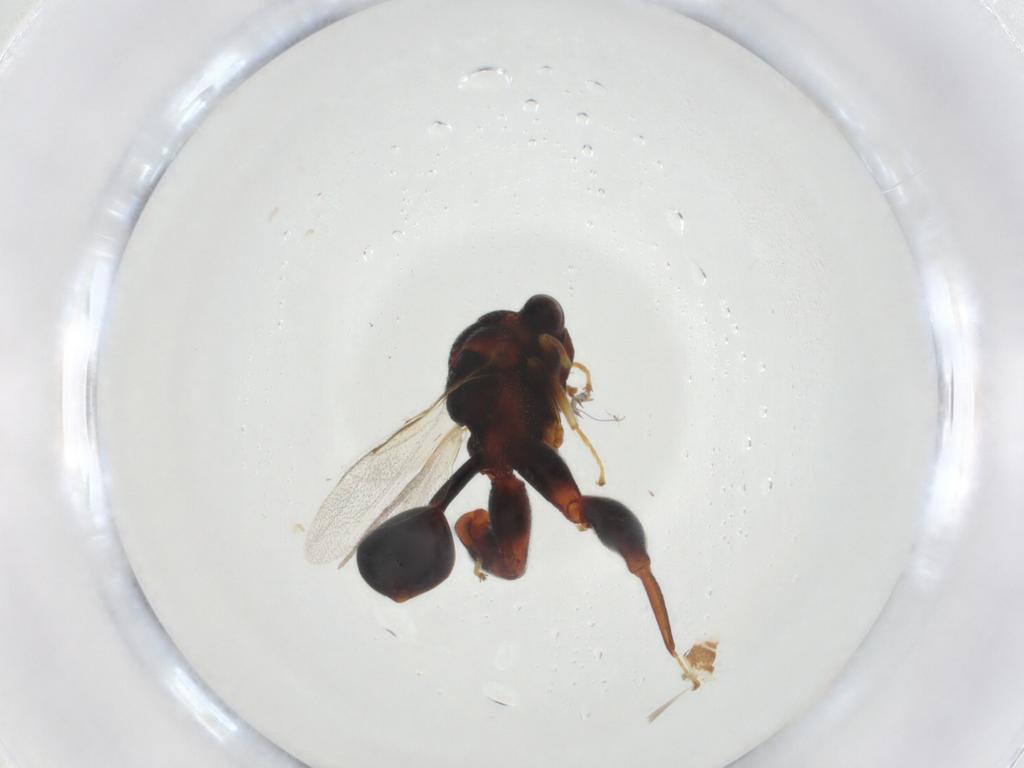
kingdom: Animalia
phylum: Arthropoda
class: Insecta
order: Hymenoptera
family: Chalcididae
